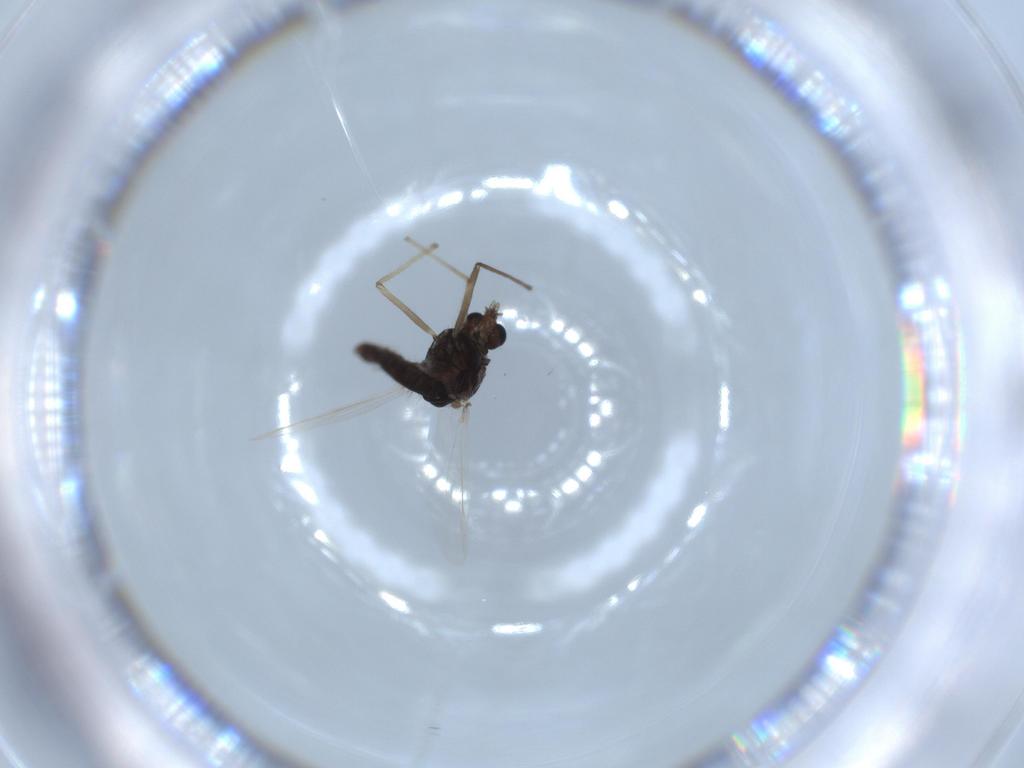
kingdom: Animalia
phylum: Arthropoda
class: Insecta
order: Diptera
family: Chironomidae
